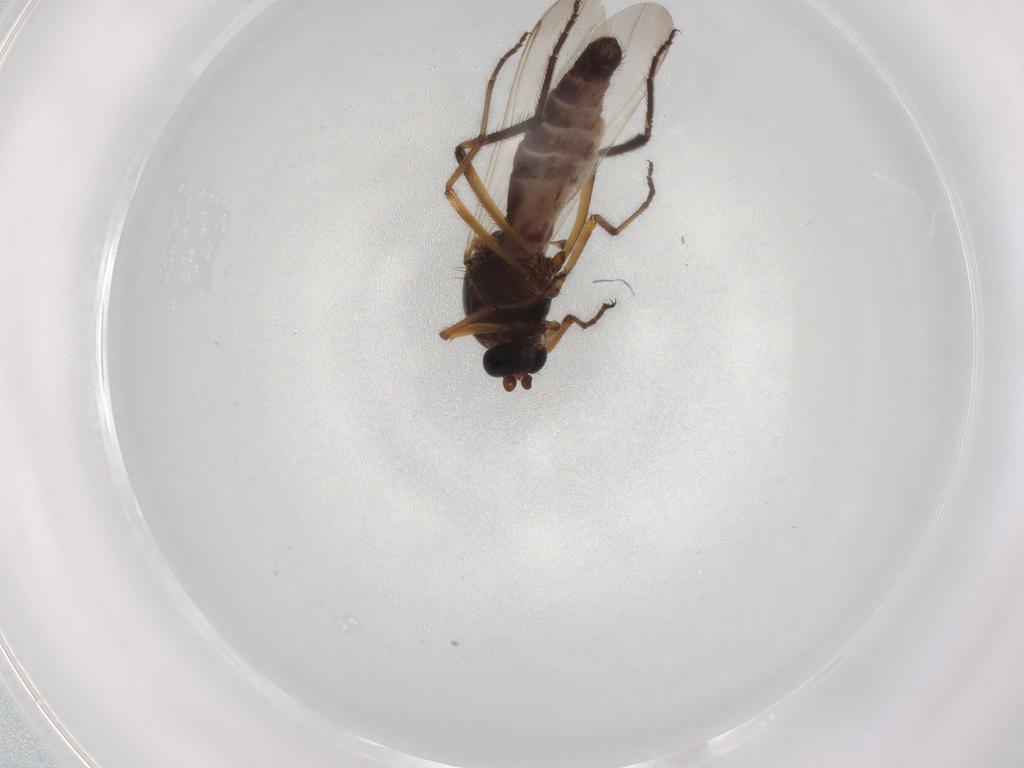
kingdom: Animalia
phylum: Arthropoda
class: Insecta
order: Diptera
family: Ceratopogonidae
